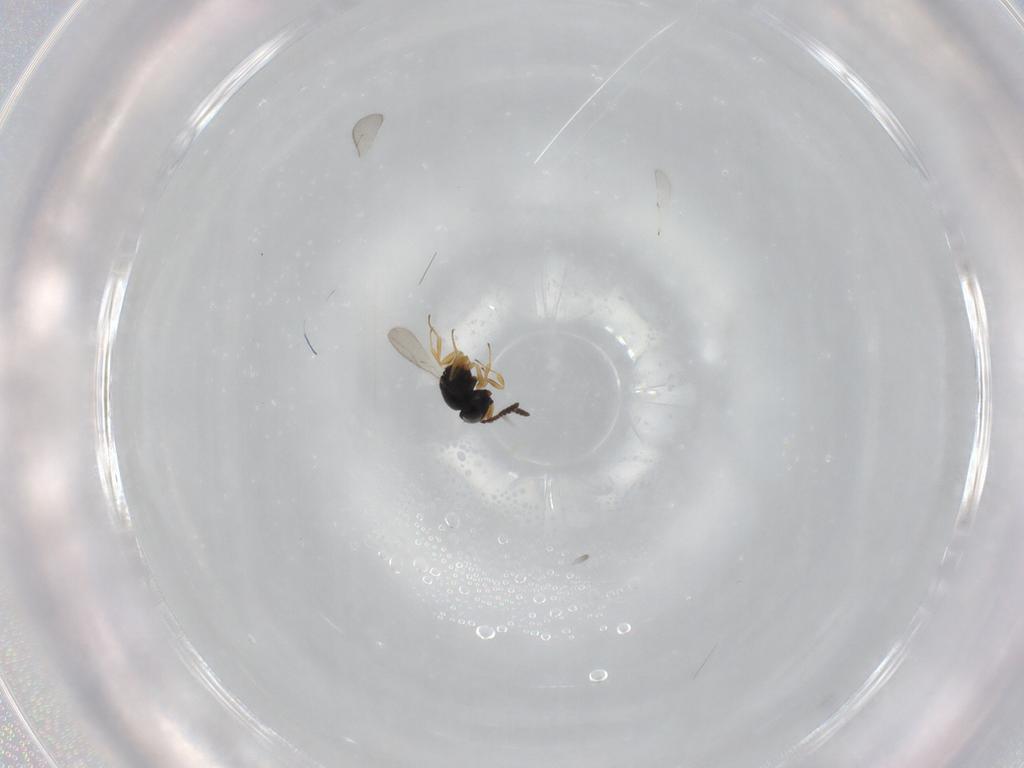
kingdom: Animalia
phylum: Arthropoda
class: Insecta
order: Hymenoptera
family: Scelionidae
